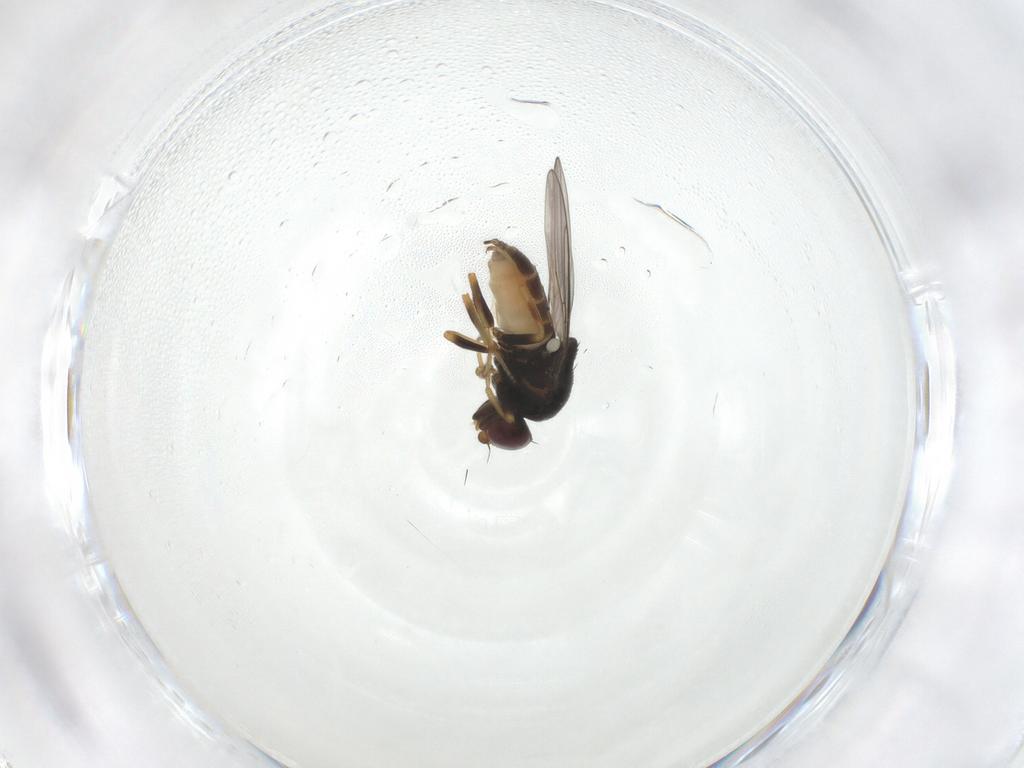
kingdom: Animalia
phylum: Arthropoda
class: Insecta
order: Diptera
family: Chloropidae
